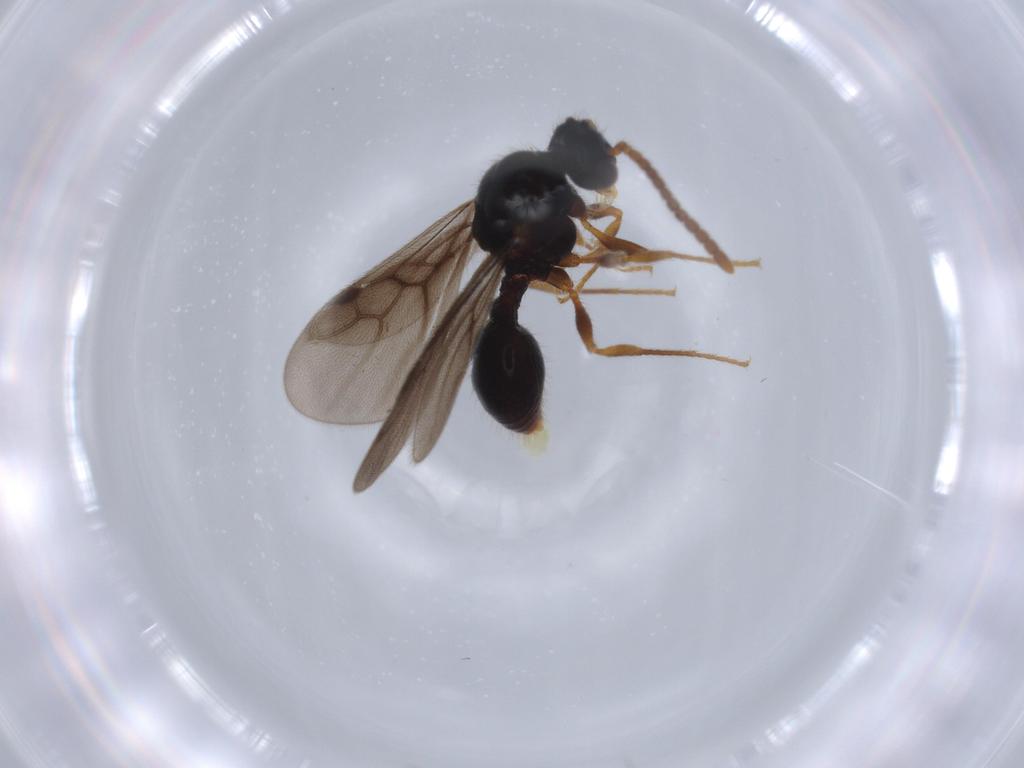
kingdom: Animalia
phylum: Arthropoda
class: Insecta
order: Hymenoptera
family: Formicidae
